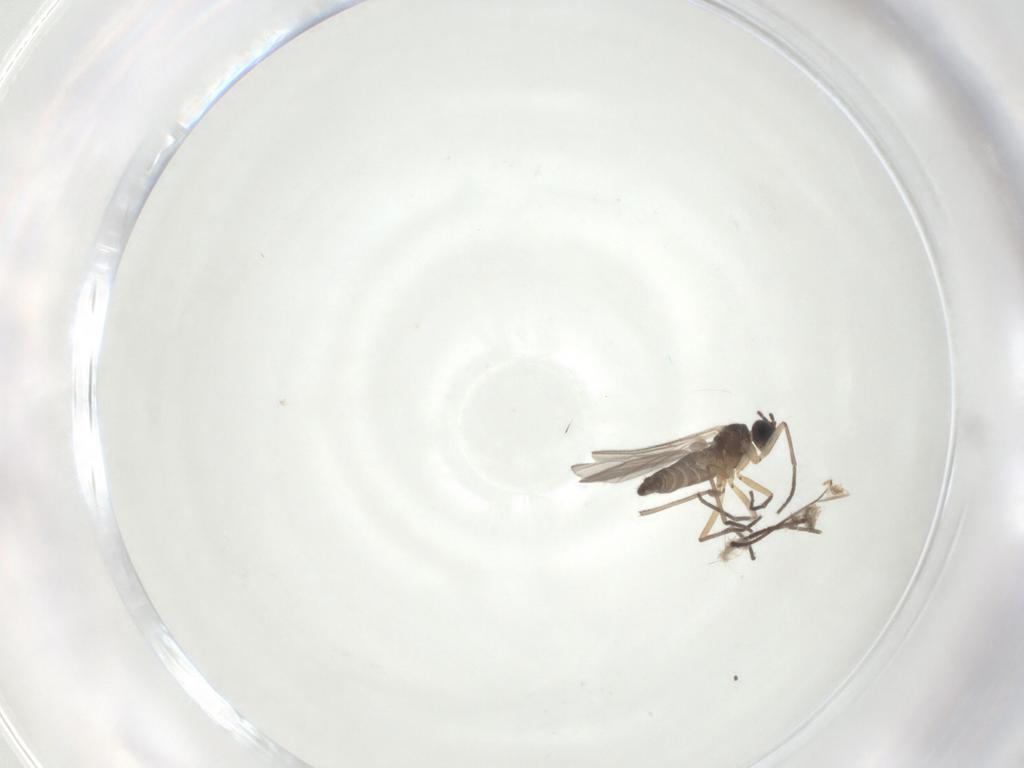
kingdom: Animalia
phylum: Arthropoda
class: Insecta
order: Diptera
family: Chironomidae
